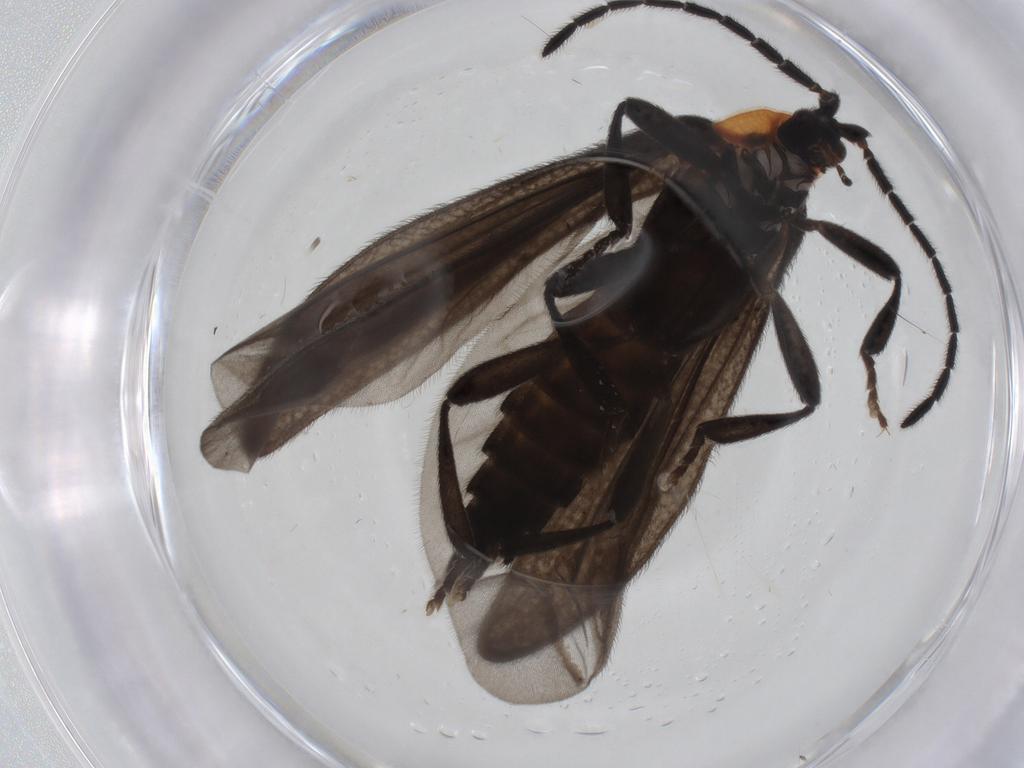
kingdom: Animalia
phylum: Arthropoda
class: Insecta
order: Coleoptera
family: Lycidae
